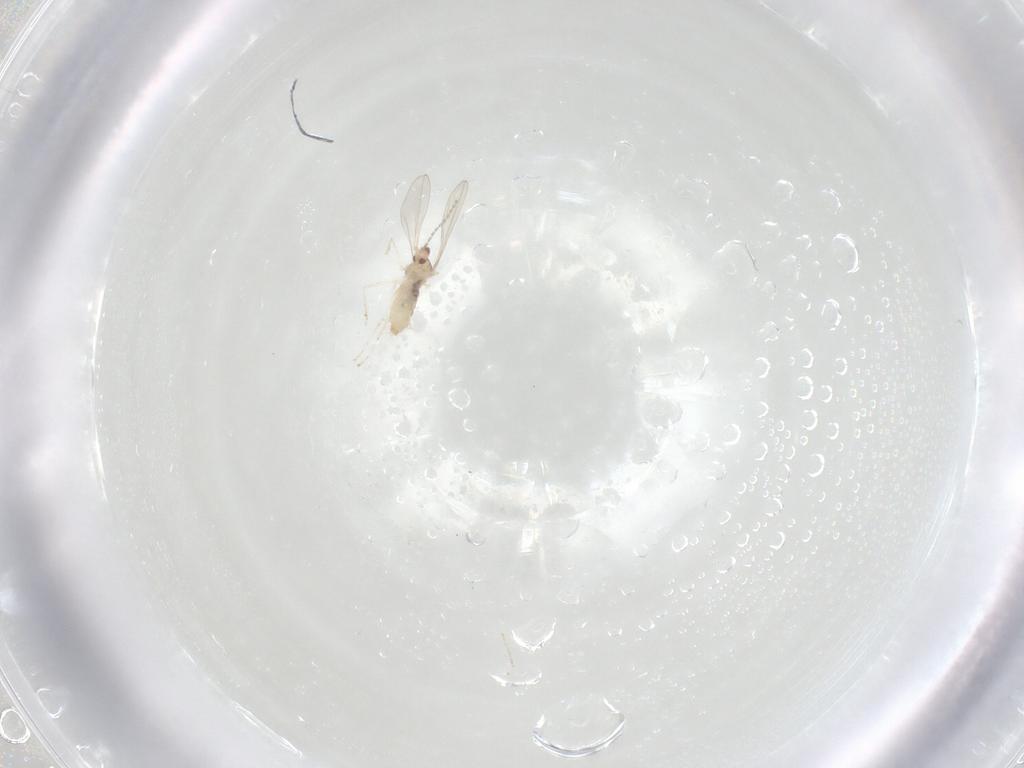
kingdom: Animalia
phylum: Arthropoda
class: Insecta
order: Diptera
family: Cecidomyiidae
